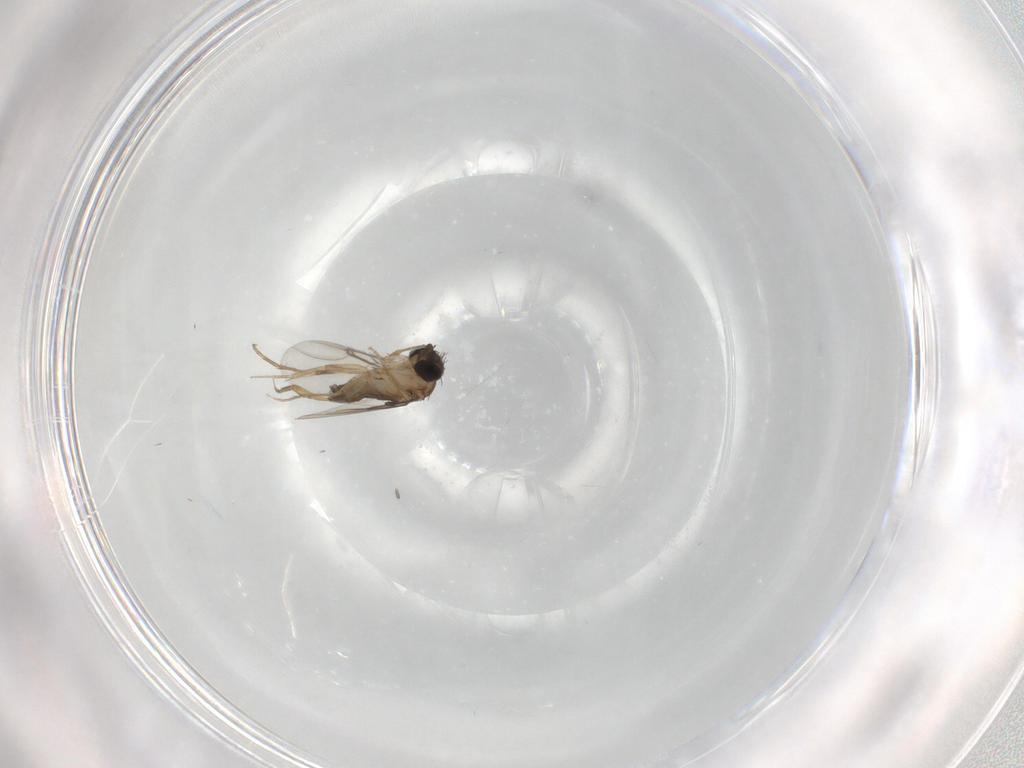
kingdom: Animalia
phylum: Arthropoda
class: Insecta
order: Diptera
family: Phoridae
